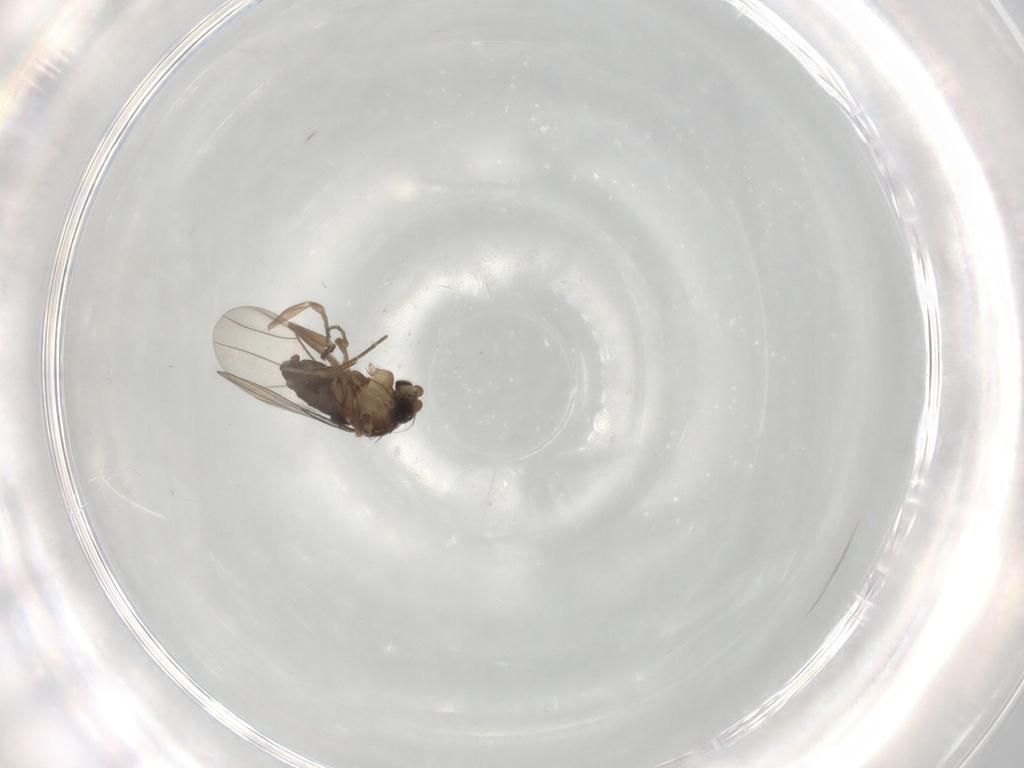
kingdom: Animalia
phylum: Arthropoda
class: Insecta
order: Diptera
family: Phoridae
